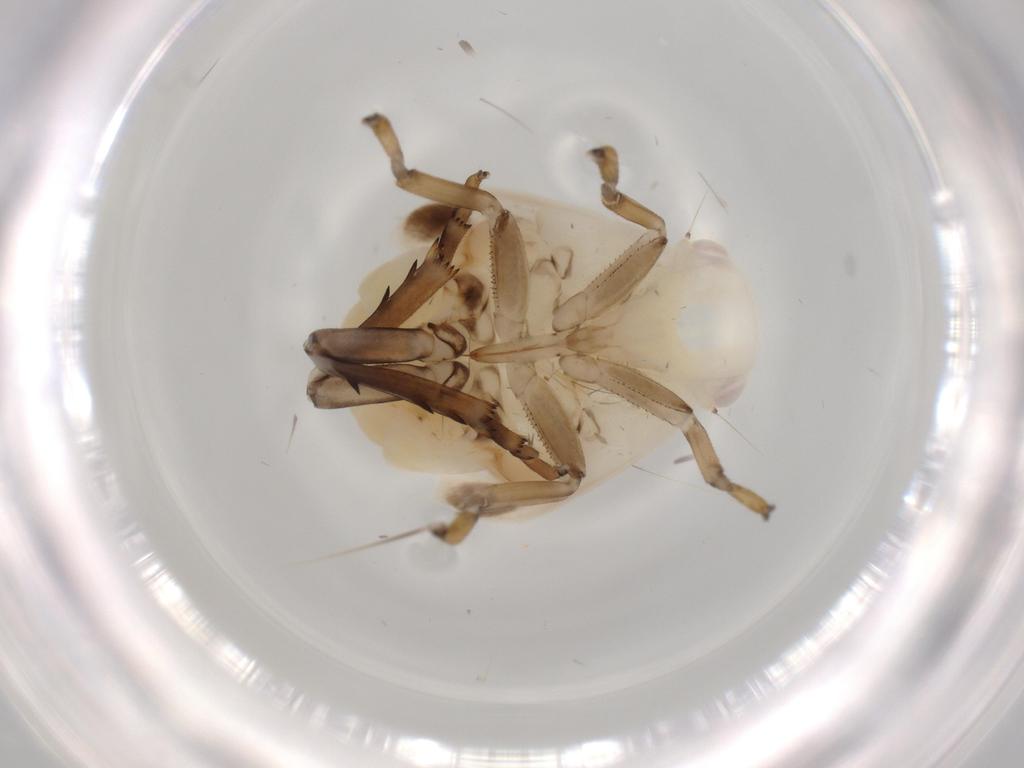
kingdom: Animalia
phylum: Arthropoda
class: Insecta
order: Hemiptera
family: Flatidae
